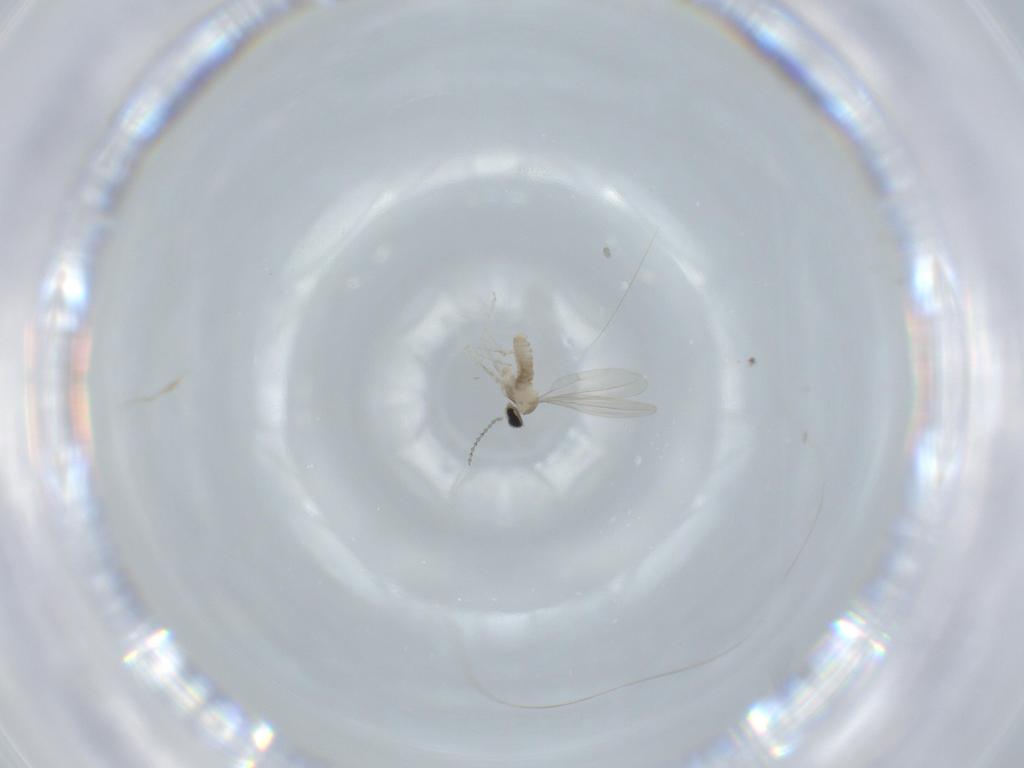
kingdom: Animalia
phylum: Arthropoda
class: Insecta
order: Diptera
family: Cecidomyiidae
